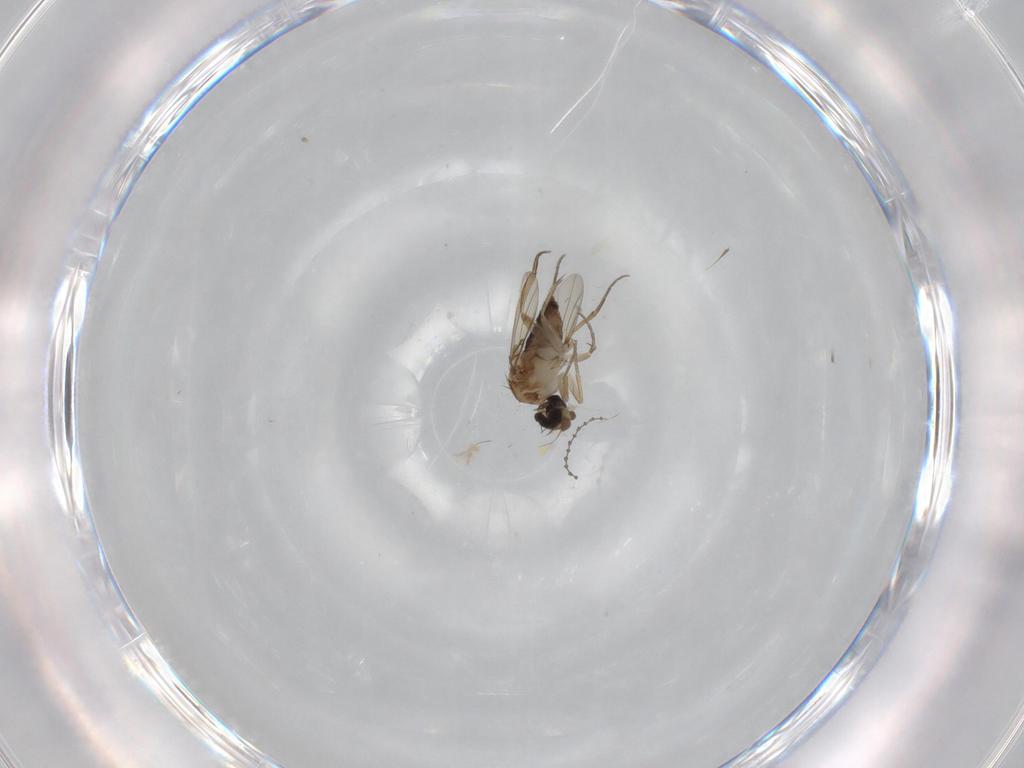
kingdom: Animalia
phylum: Arthropoda
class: Insecta
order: Diptera
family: Phoridae
